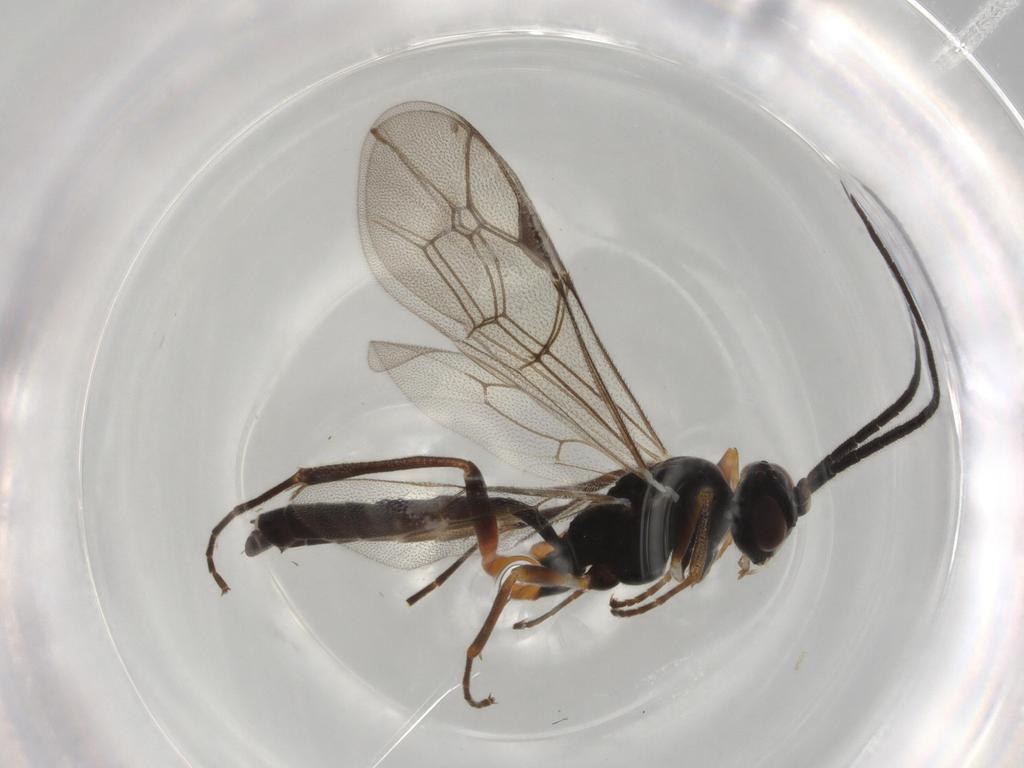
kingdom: Animalia
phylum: Arthropoda
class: Insecta
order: Hymenoptera
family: Ichneumonidae
